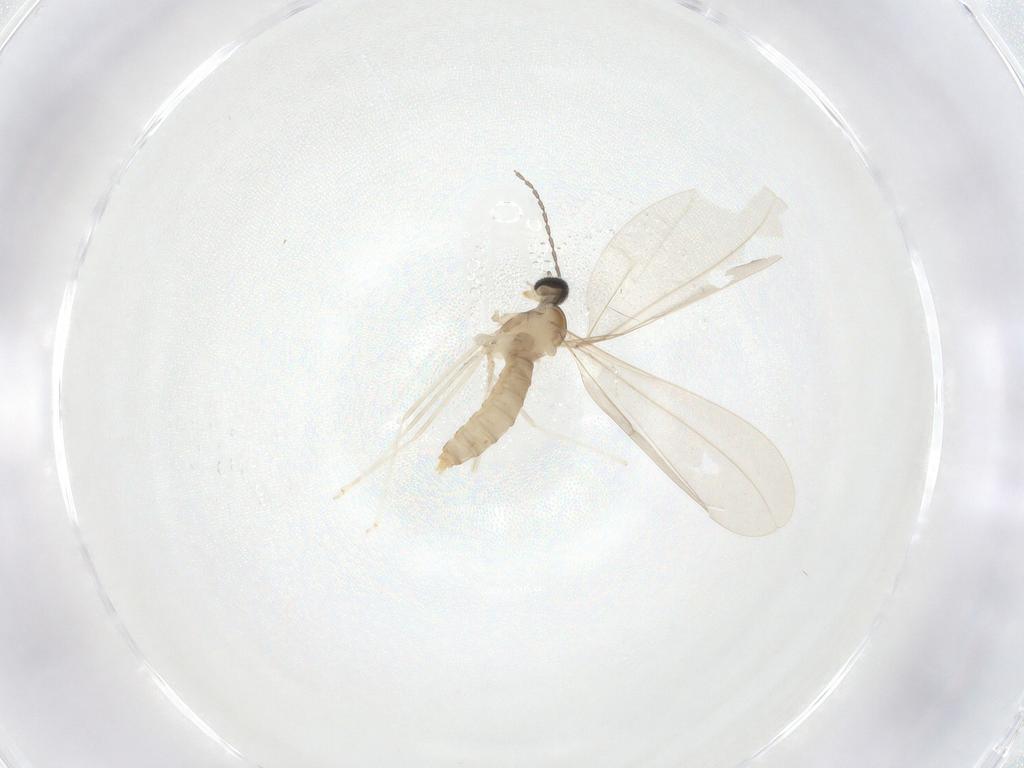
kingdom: Animalia
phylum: Arthropoda
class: Insecta
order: Diptera
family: Cecidomyiidae
